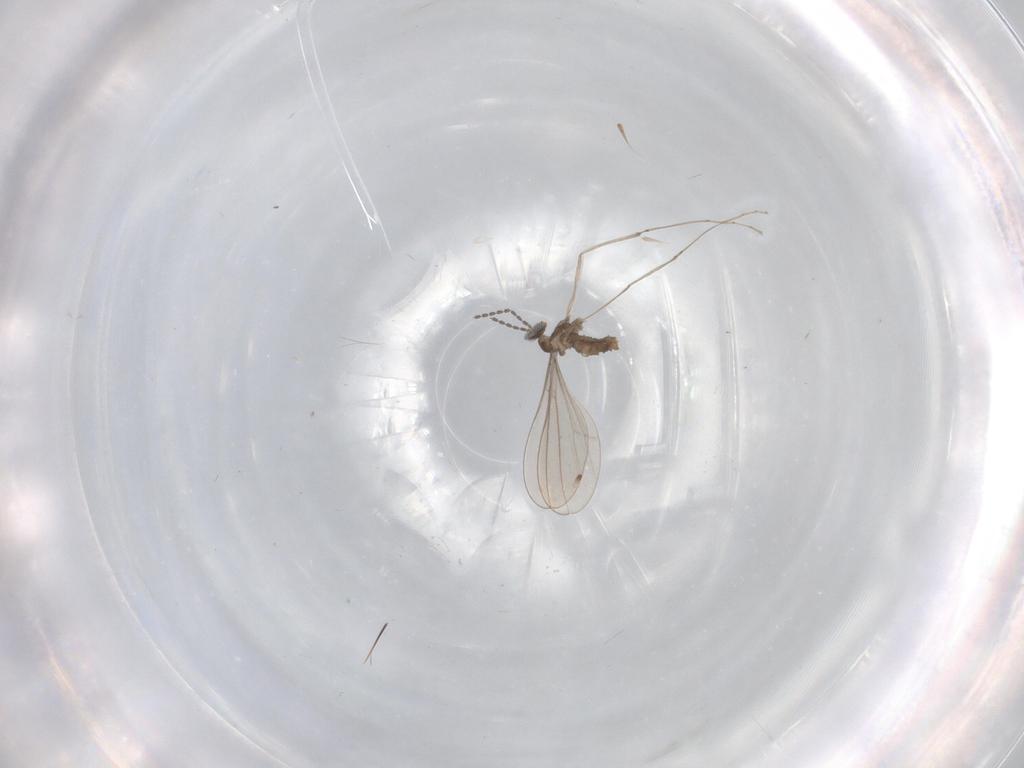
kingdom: Animalia
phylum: Arthropoda
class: Insecta
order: Diptera
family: Cecidomyiidae
